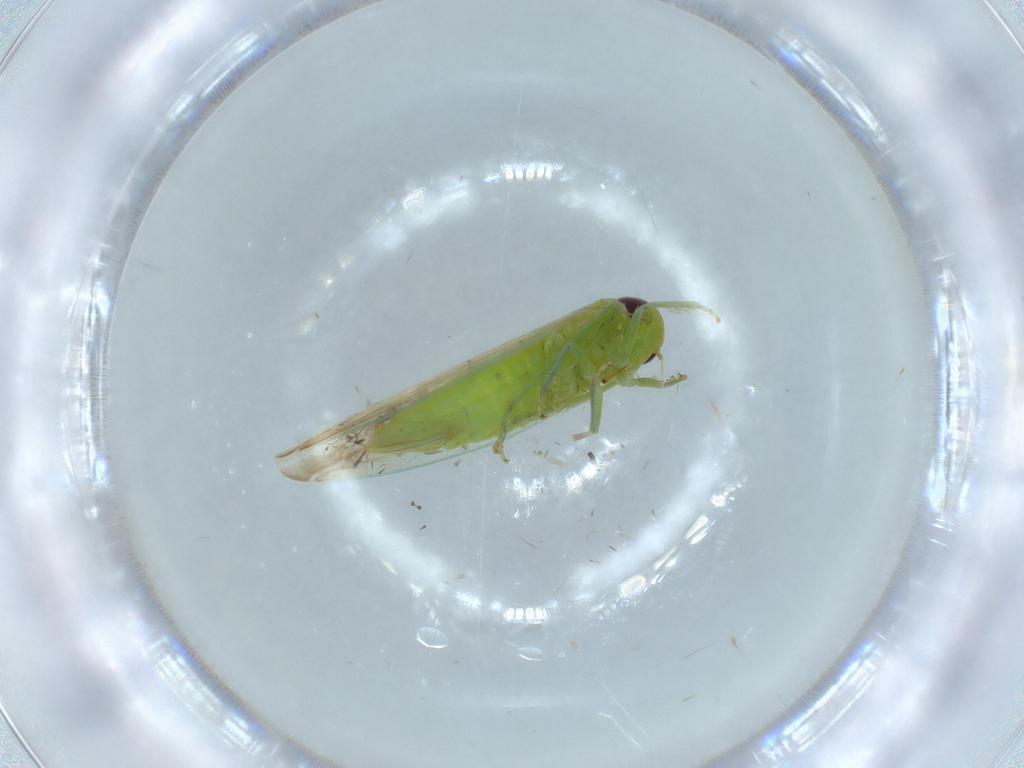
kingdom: Animalia
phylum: Arthropoda
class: Insecta
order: Diptera
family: Cecidomyiidae
